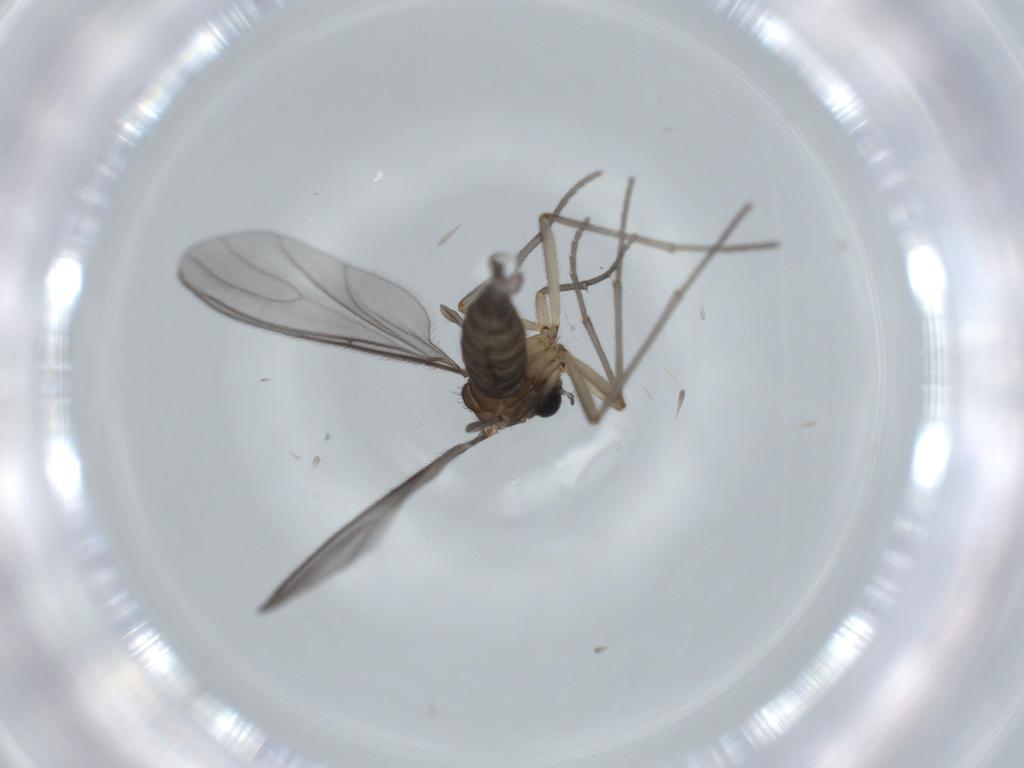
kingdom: Animalia
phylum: Arthropoda
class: Insecta
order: Diptera
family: Sciaridae
